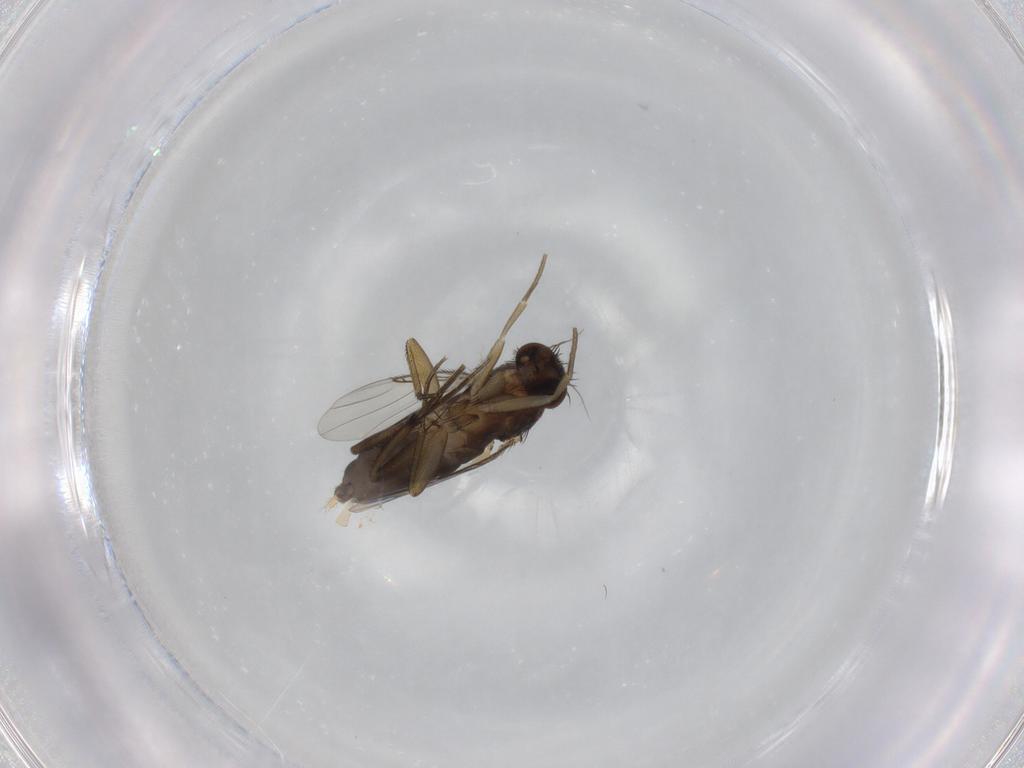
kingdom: Animalia
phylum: Arthropoda
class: Insecta
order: Diptera
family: Phoridae
